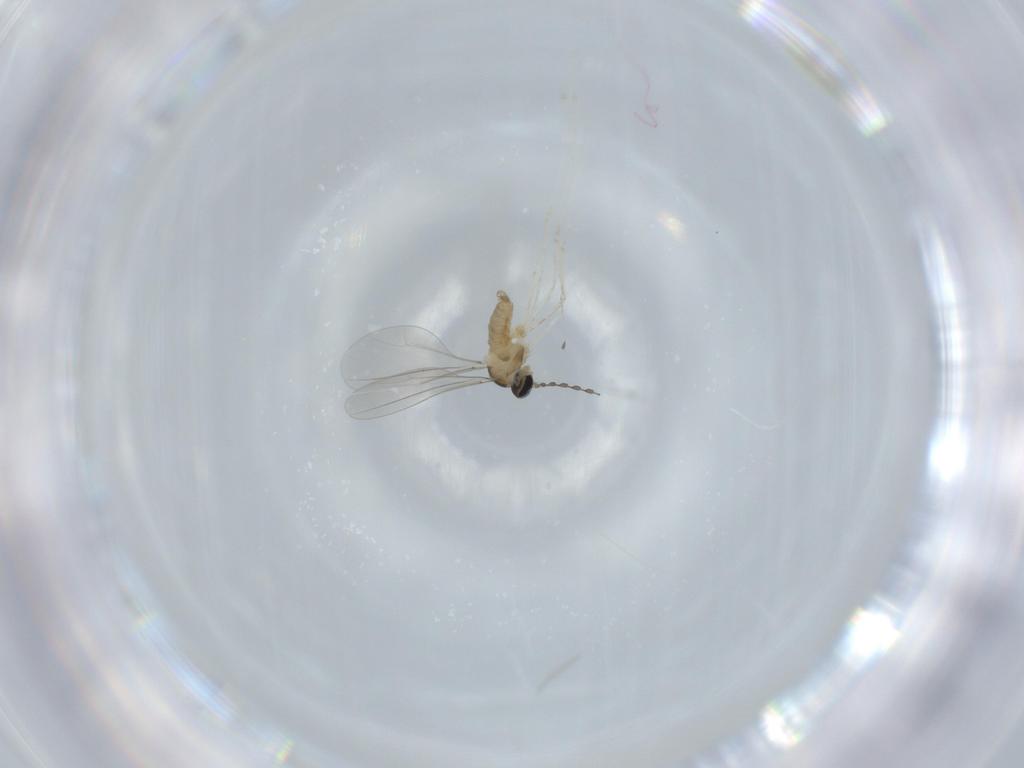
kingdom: Animalia
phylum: Arthropoda
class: Insecta
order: Diptera
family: Cecidomyiidae
